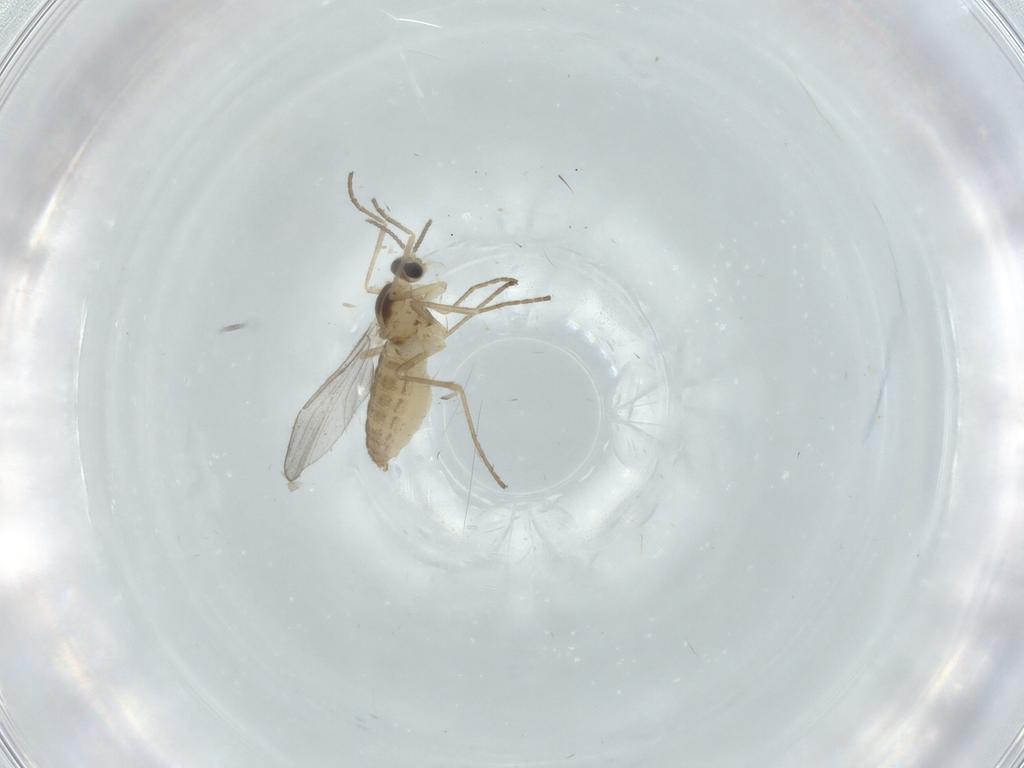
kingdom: Animalia
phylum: Arthropoda
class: Insecta
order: Diptera
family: Cecidomyiidae
